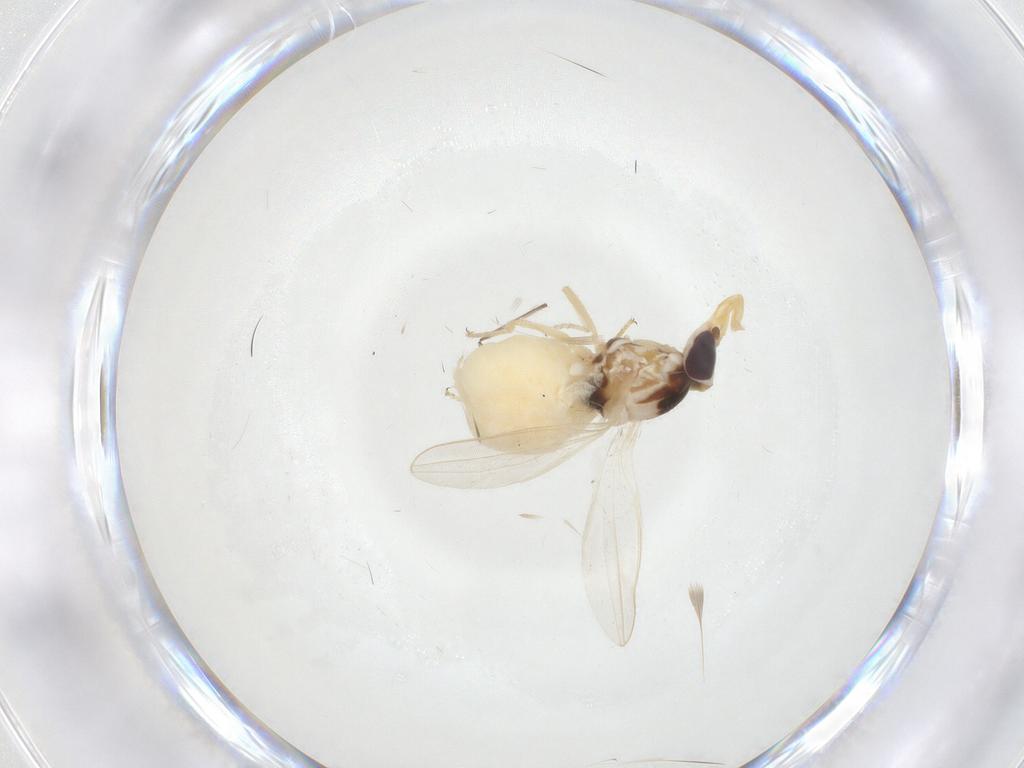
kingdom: Animalia
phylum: Arthropoda
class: Insecta
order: Diptera
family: Chloropidae
